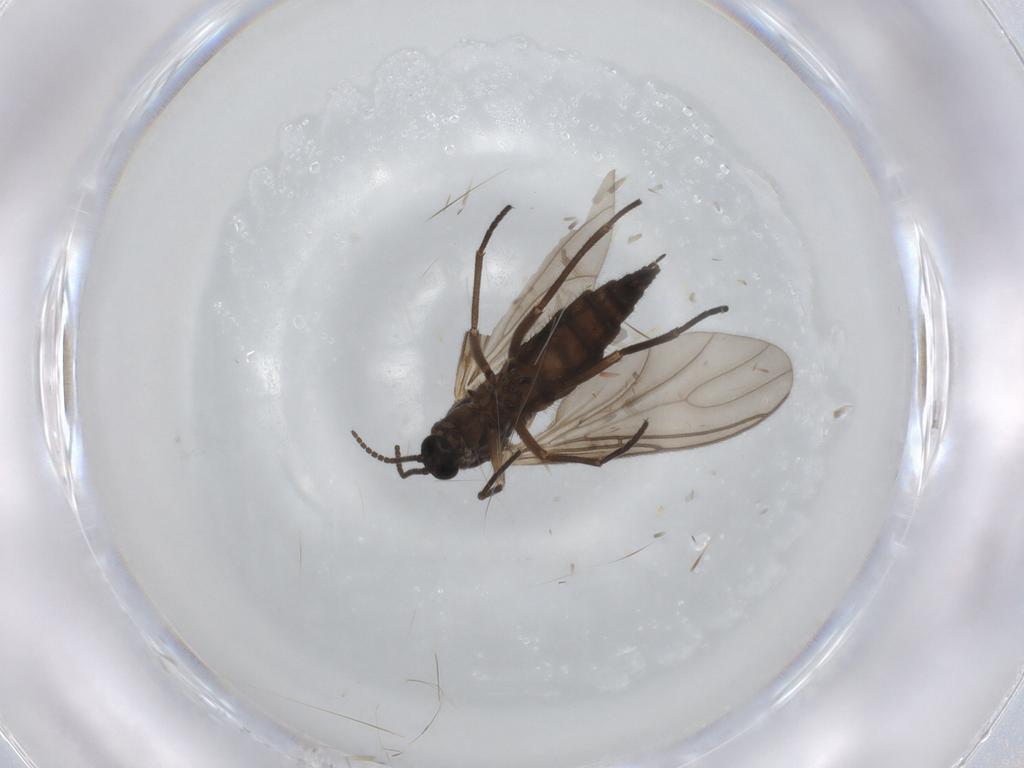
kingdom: Animalia
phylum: Arthropoda
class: Insecta
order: Diptera
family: Sciaridae
